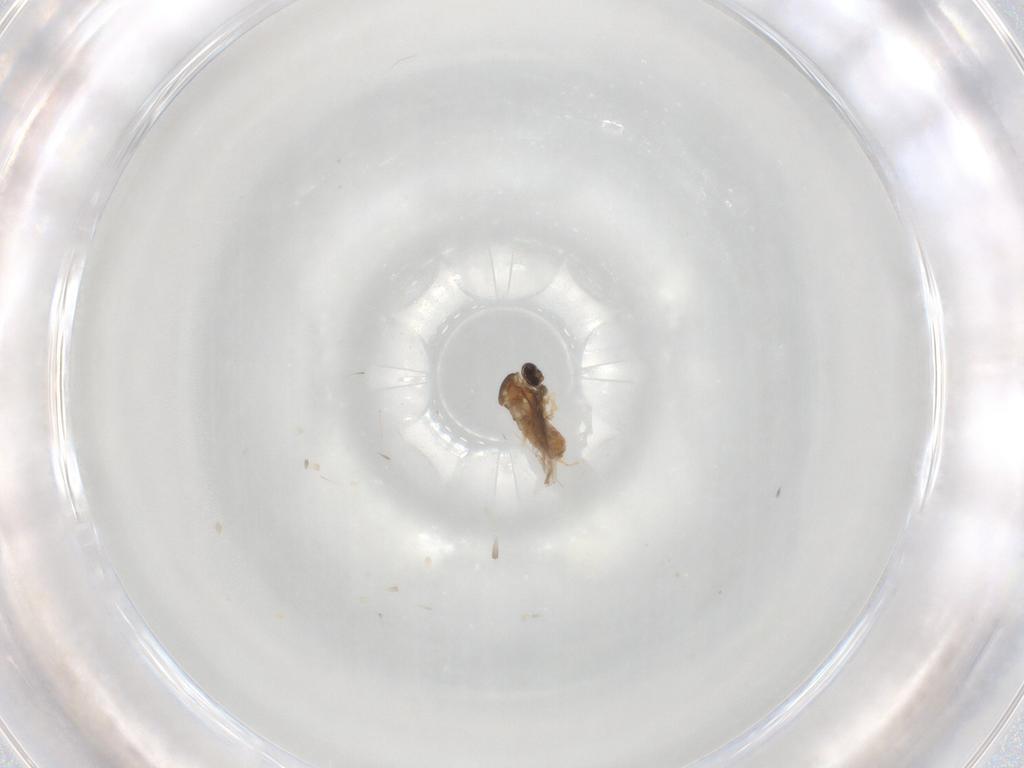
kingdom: Animalia
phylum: Arthropoda
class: Insecta
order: Diptera
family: Cecidomyiidae
